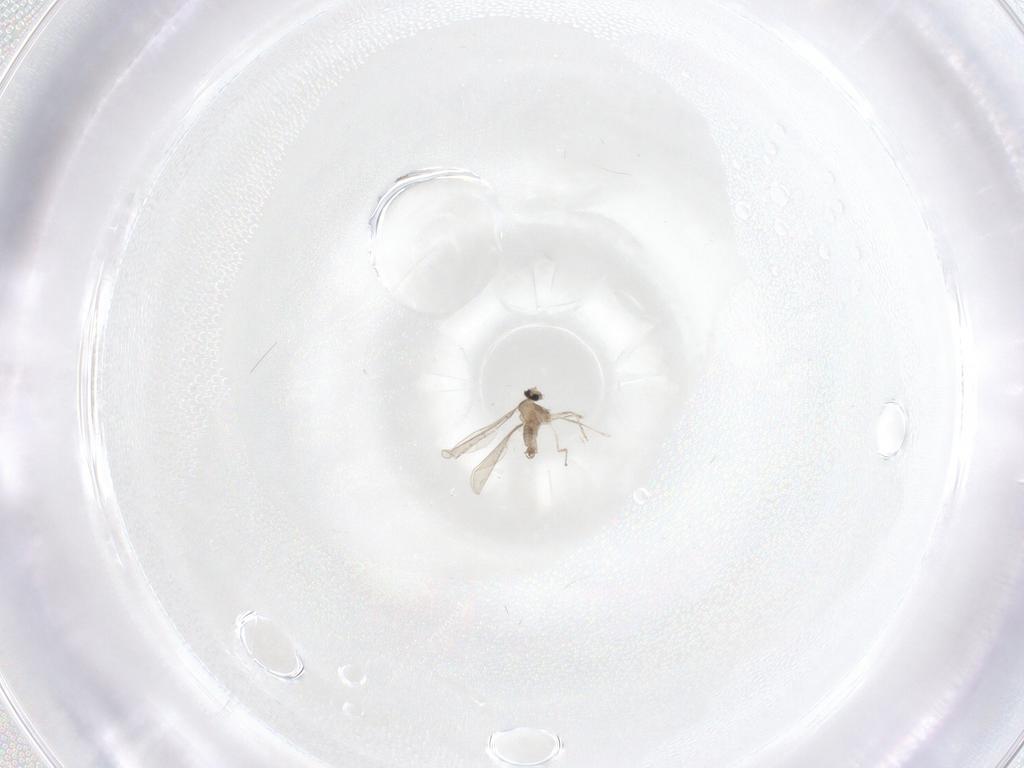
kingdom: Animalia
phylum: Arthropoda
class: Insecta
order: Diptera
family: Cecidomyiidae
